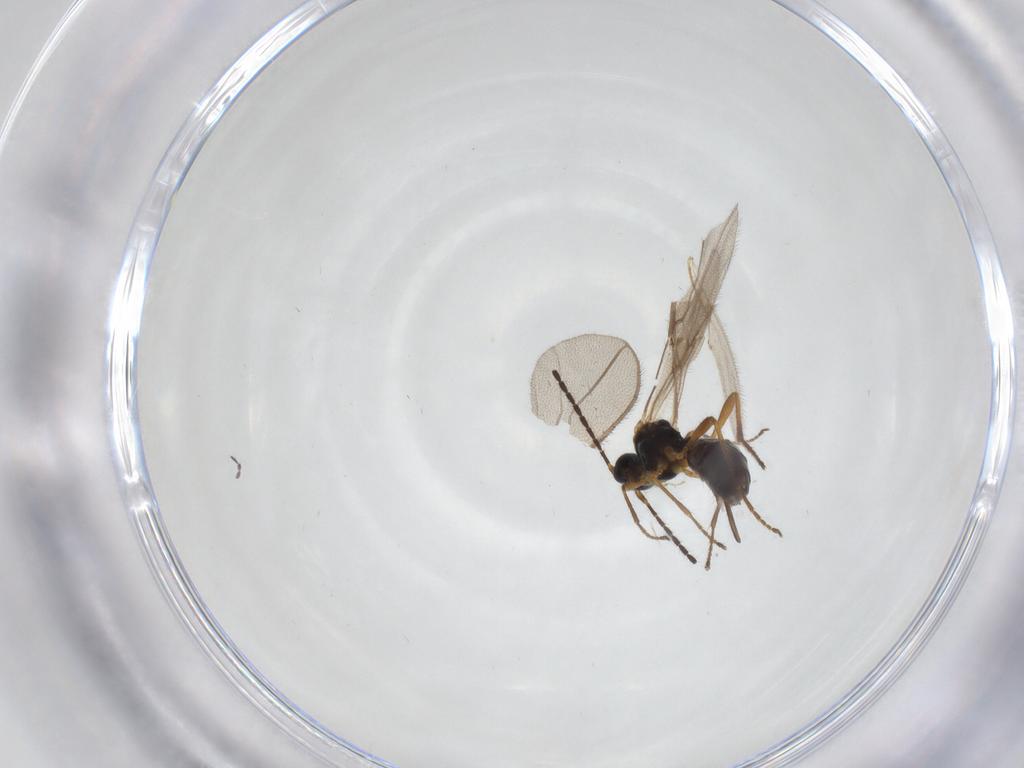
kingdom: Animalia
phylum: Arthropoda
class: Insecta
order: Hymenoptera
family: Braconidae
